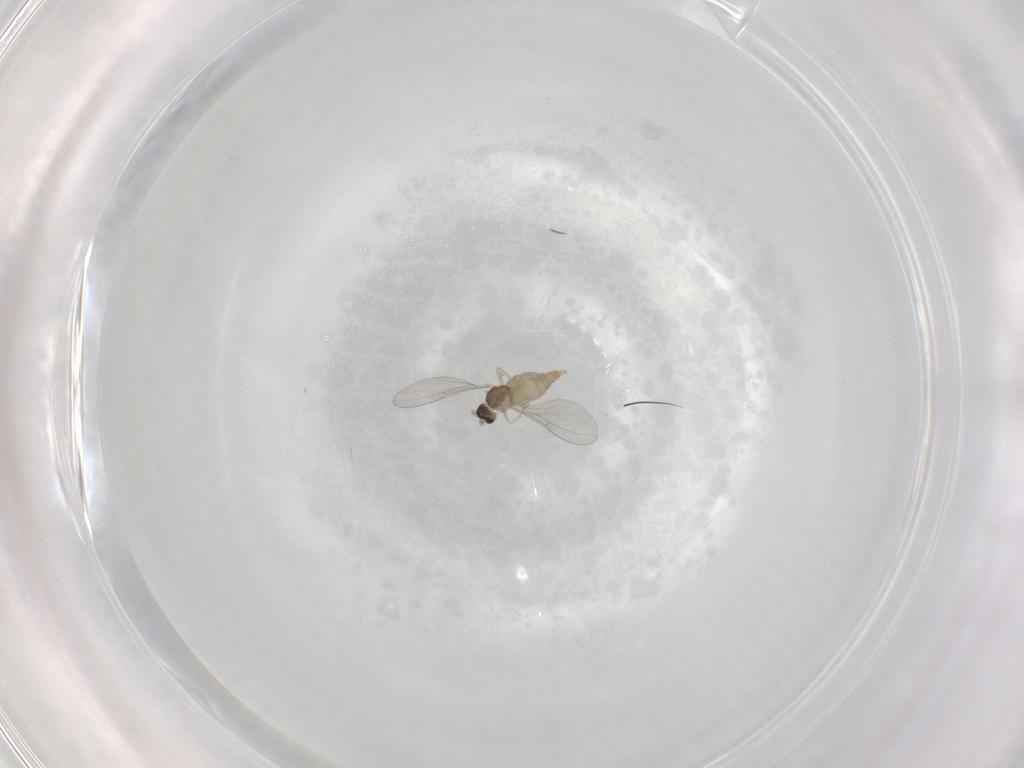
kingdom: Animalia
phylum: Arthropoda
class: Insecta
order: Diptera
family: Cecidomyiidae
